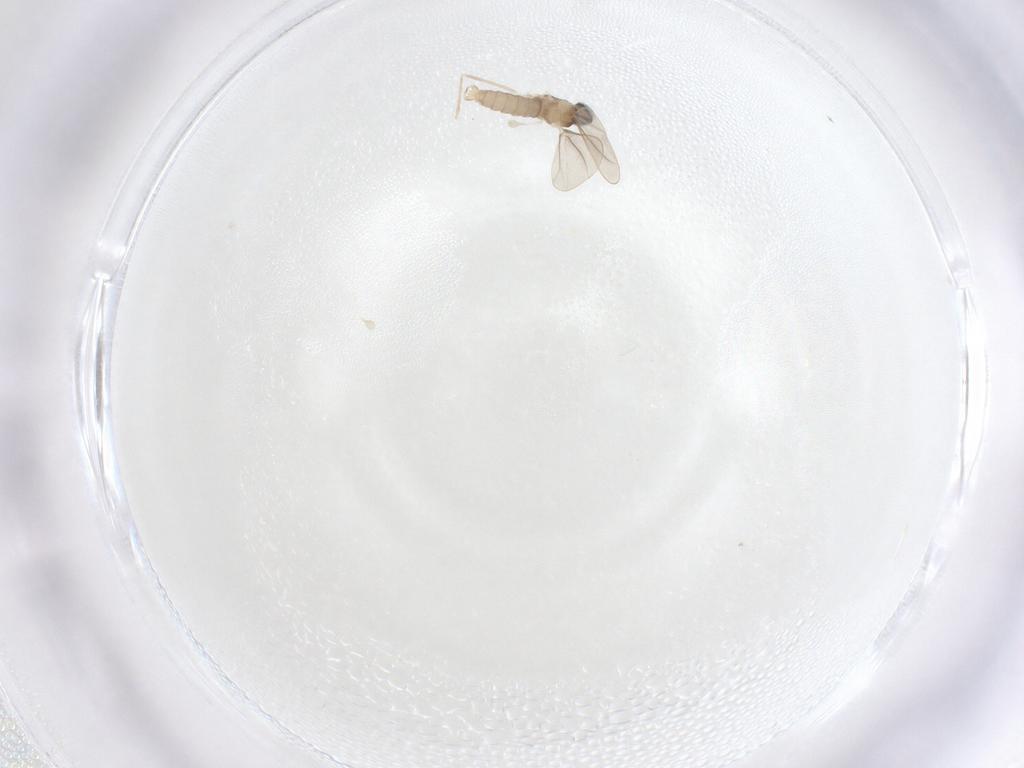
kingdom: Animalia
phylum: Arthropoda
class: Insecta
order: Diptera
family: Cecidomyiidae
